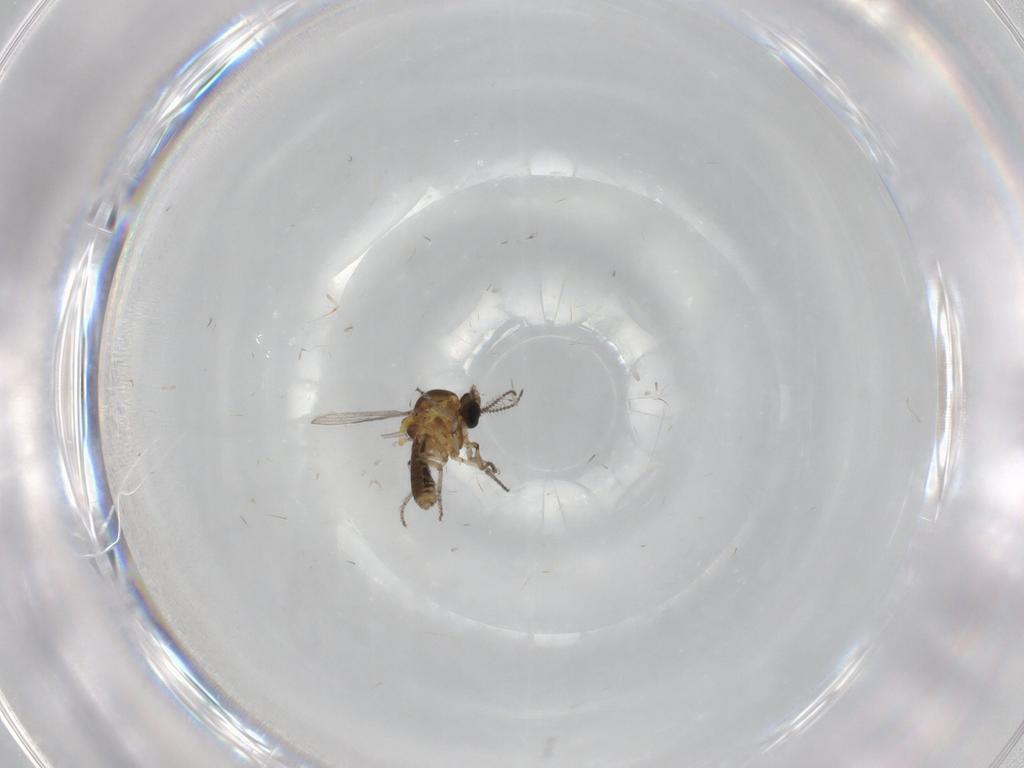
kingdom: Animalia
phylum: Arthropoda
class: Insecta
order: Diptera
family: Ceratopogonidae
